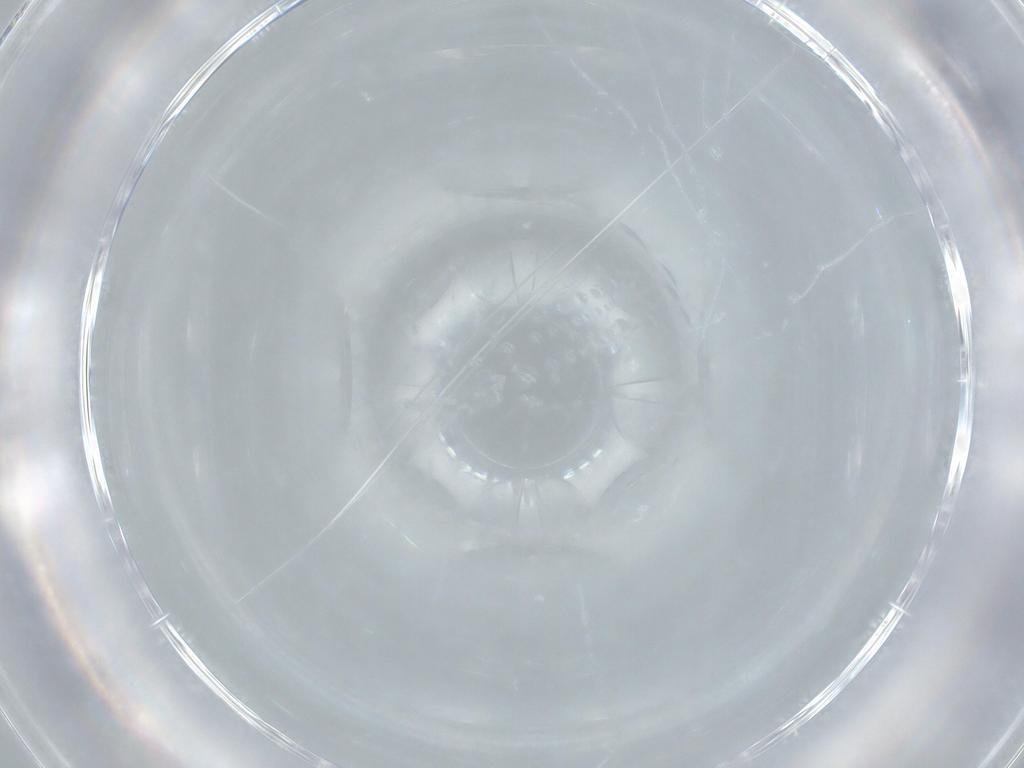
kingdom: Animalia
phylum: Arthropoda
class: Insecta
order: Diptera
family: Cecidomyiidae
